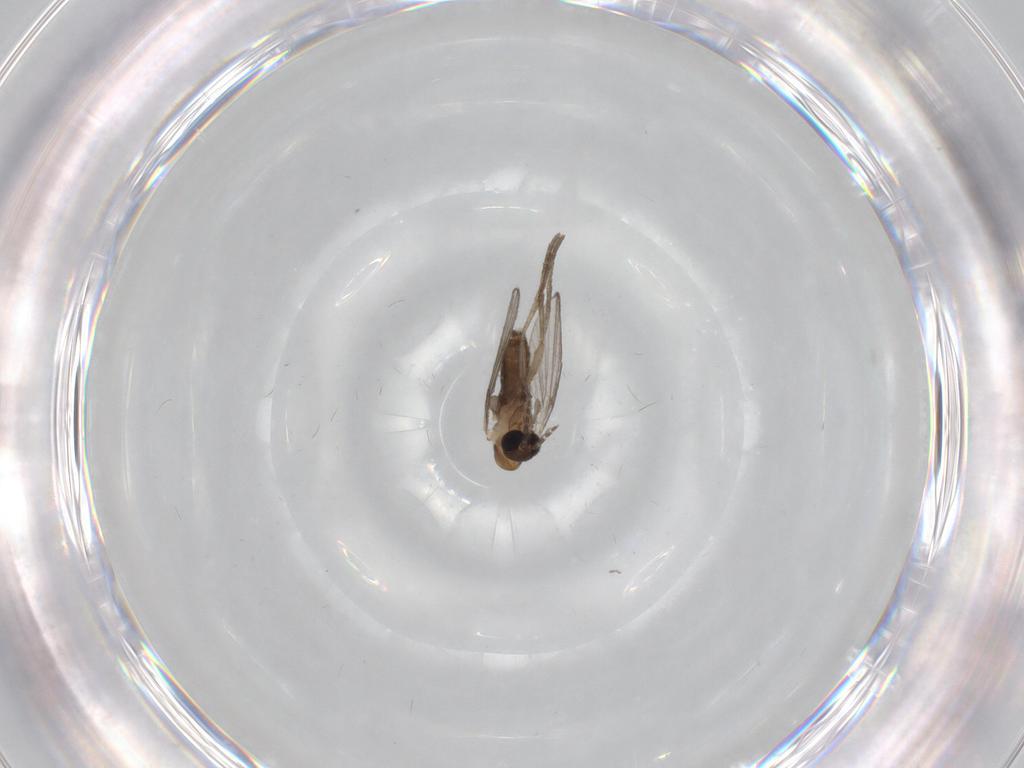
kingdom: Animalia
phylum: Arthropoda
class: Insecta
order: Diptera
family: Psychodidae
